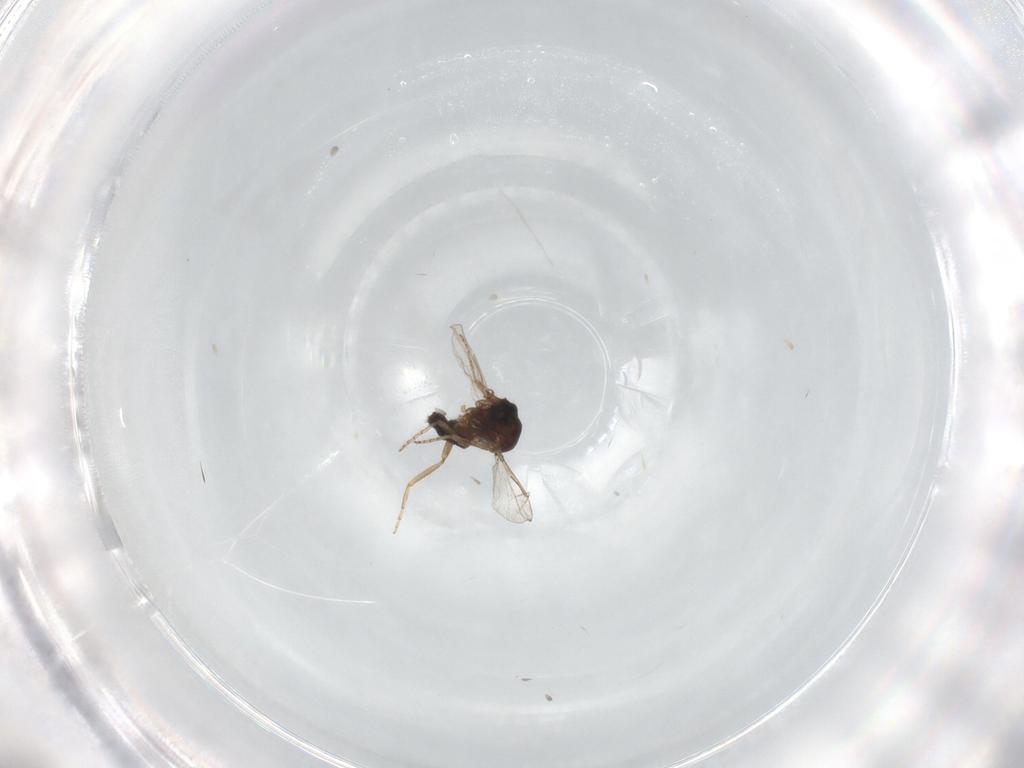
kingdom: Animalia
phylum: Arthropoda
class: Insecta
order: Diptera
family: Ceratopogonidae
